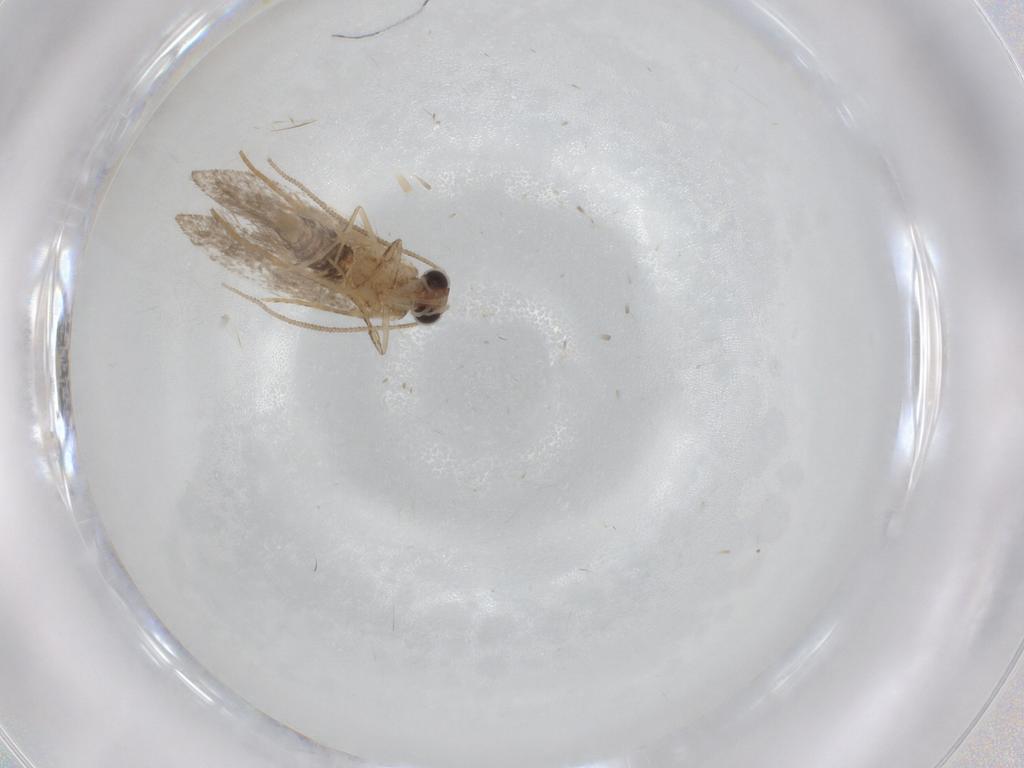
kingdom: Animalia
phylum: Arthropoda
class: Insecta
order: Lepidoptera
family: Tineidae
